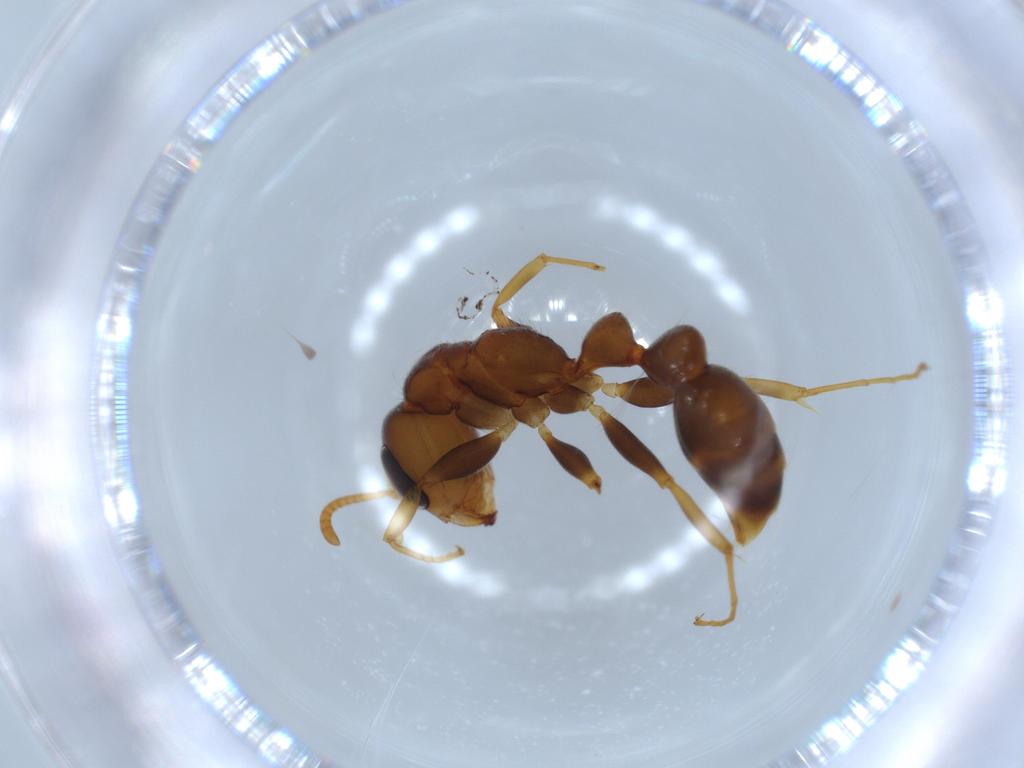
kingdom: Animalia
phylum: Arthropoda
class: Insecta
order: Hymenoptera
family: Formicidae
